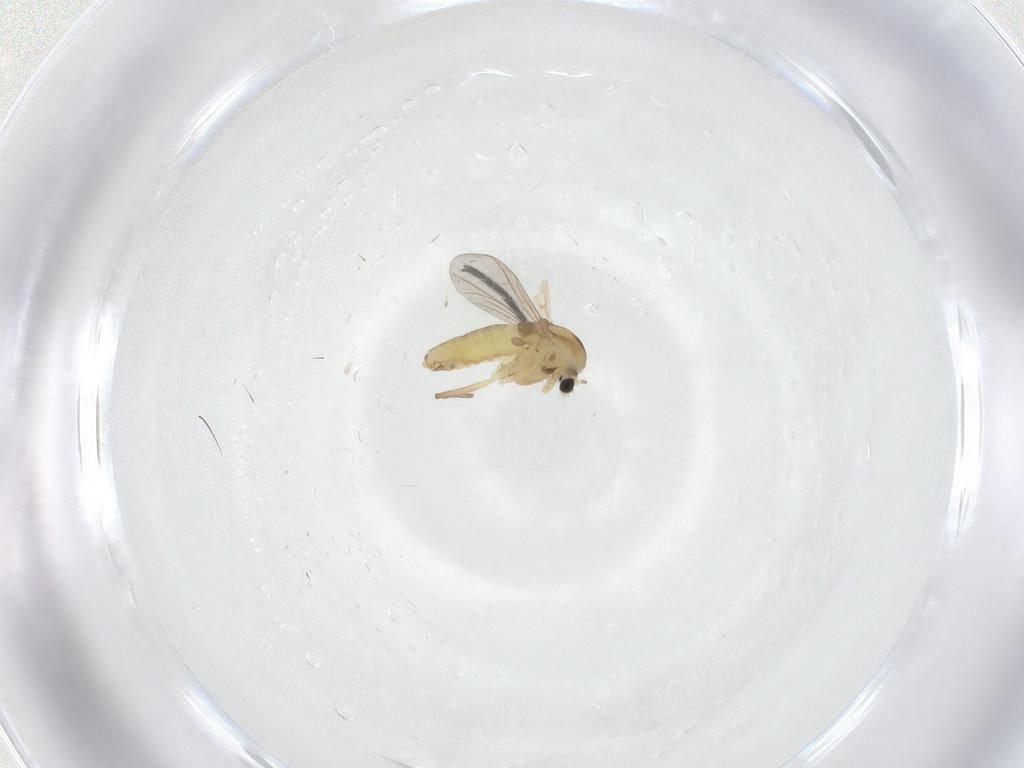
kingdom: Animalia
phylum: Arthropoda
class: Insecta
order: Diptera
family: Mycetophilidae
